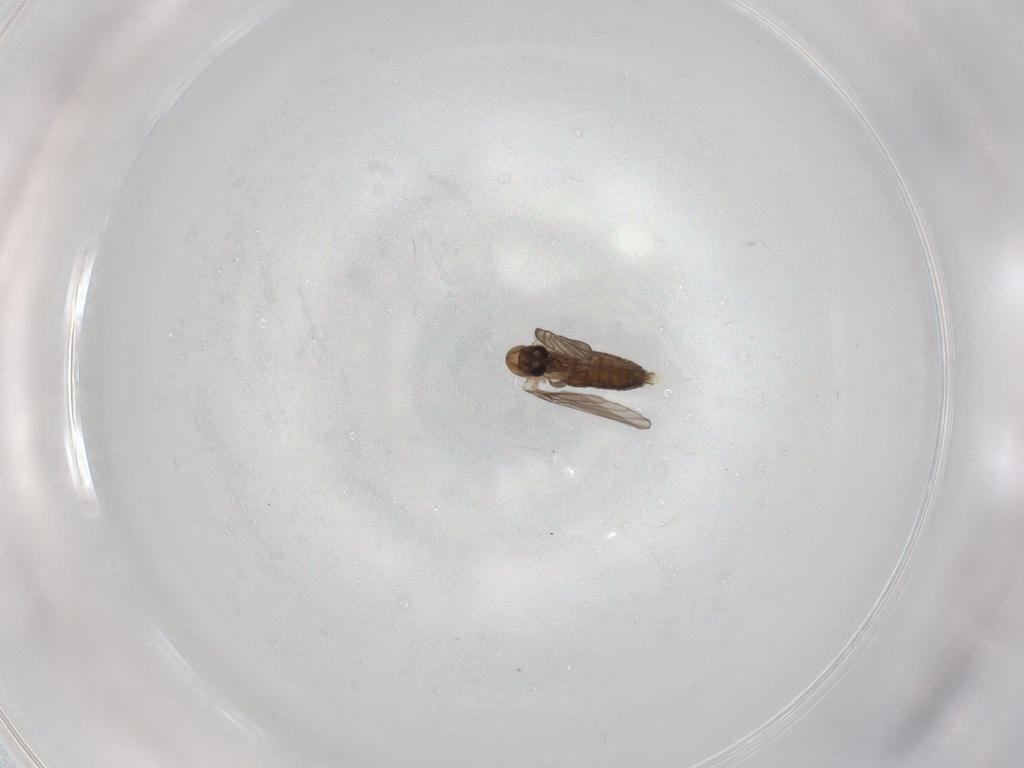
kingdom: Animalia
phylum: Arthropoda
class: Insecta
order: Diptera
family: Psychodidae
